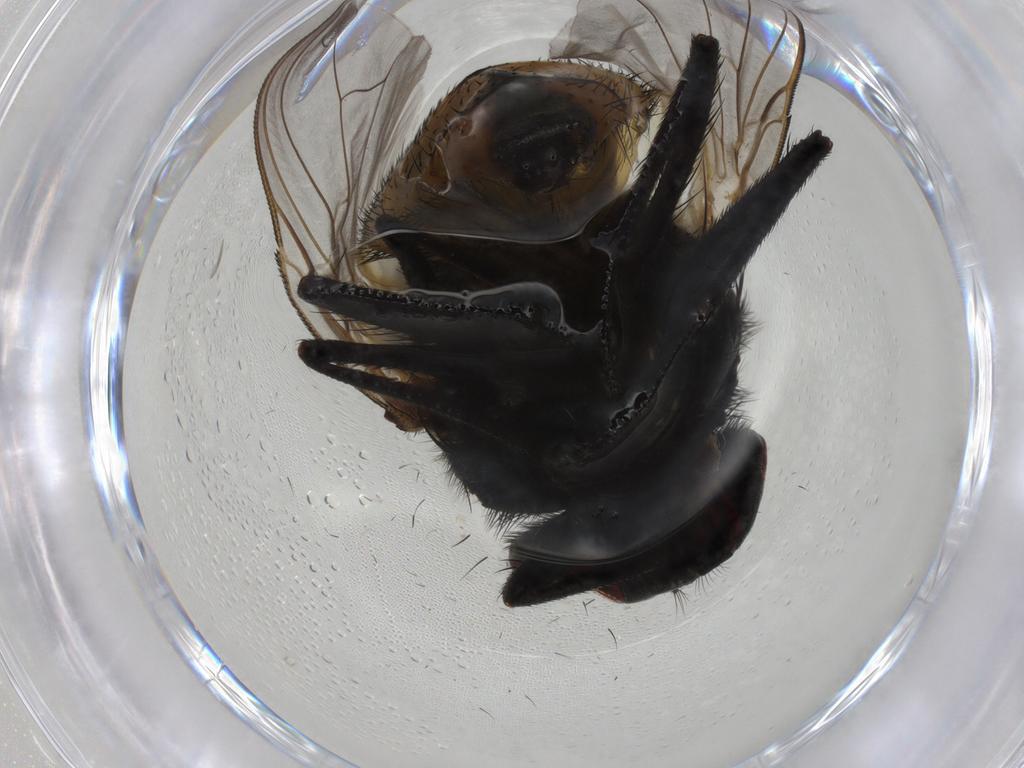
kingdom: Animalia
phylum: Arthropoda
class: Insecta
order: Diptera
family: Muscidae
